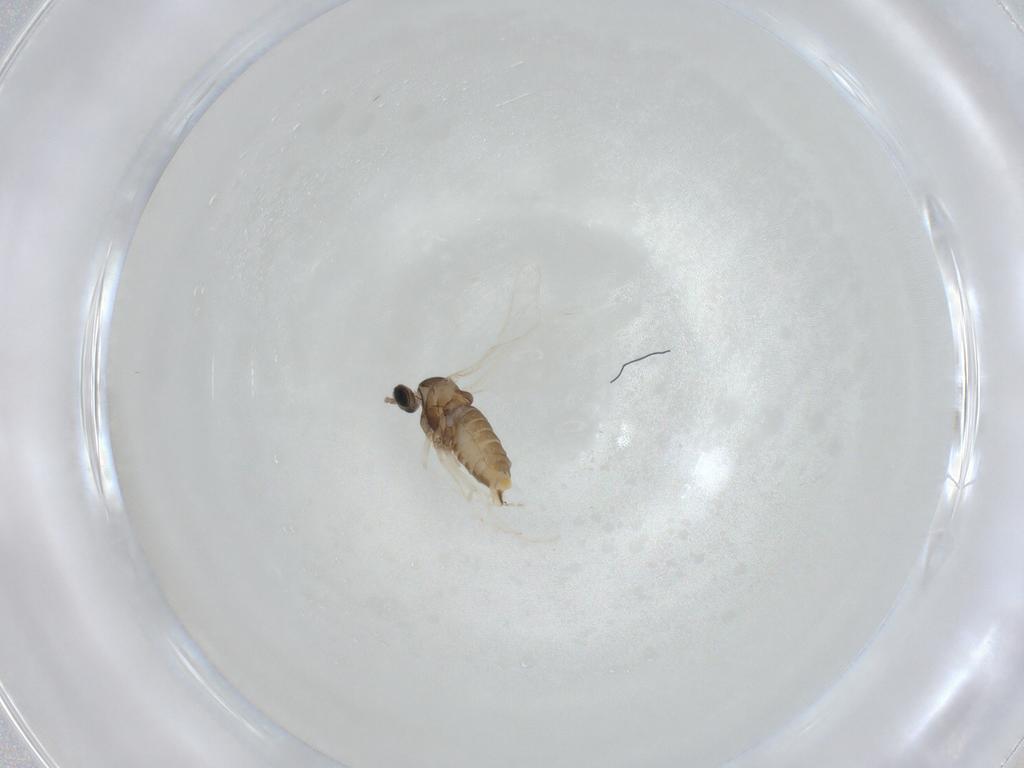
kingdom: Animalia
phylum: Arthropoda
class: Insecta
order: Diptera
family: Cecidomyiidae
